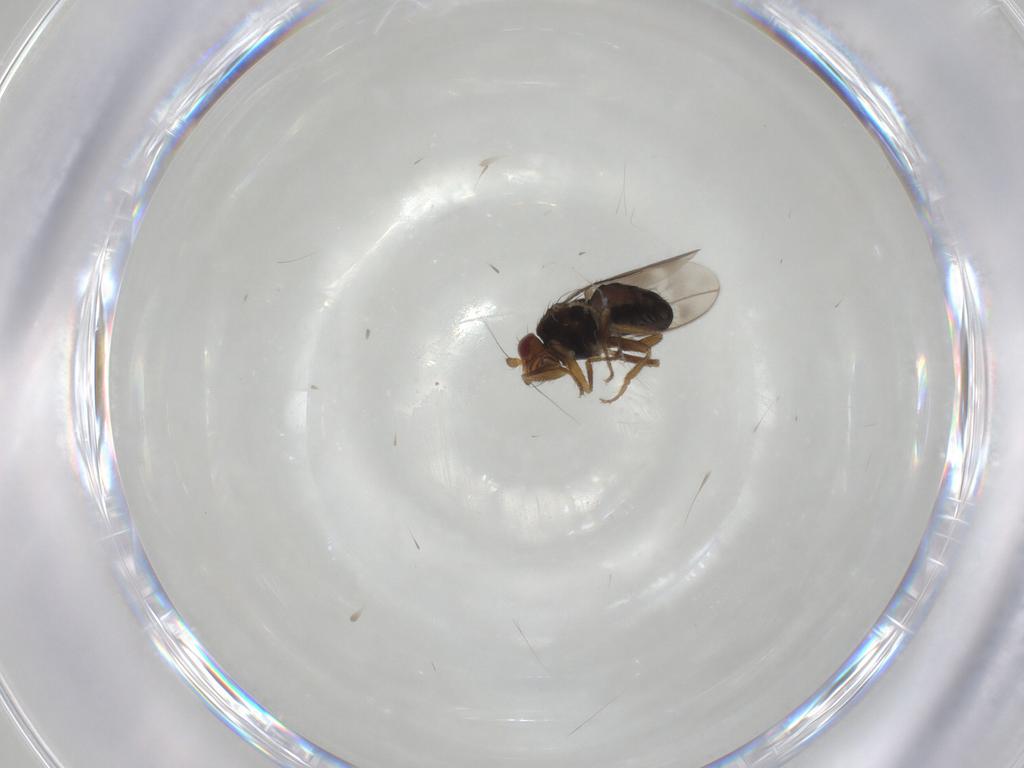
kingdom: Animalia
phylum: Arthropoda
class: Insecta
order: Diptera
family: Sphaeroceridae
